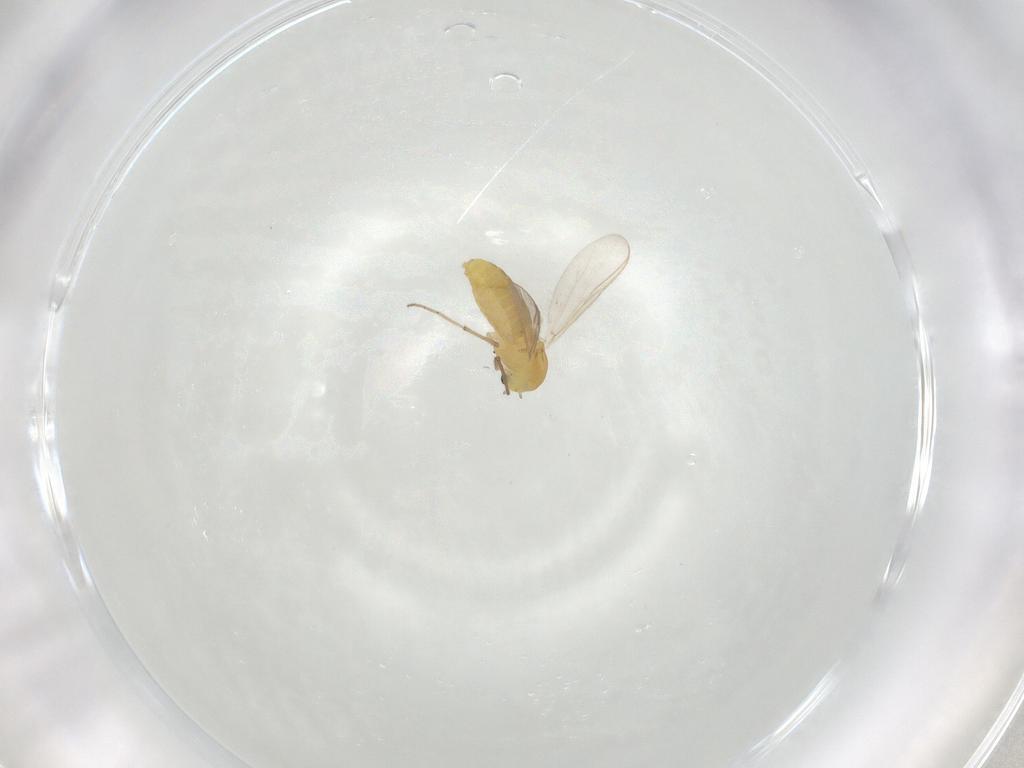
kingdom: Animalia
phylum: Arthropoda
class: Insecta
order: Diptera
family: Chironomidae
